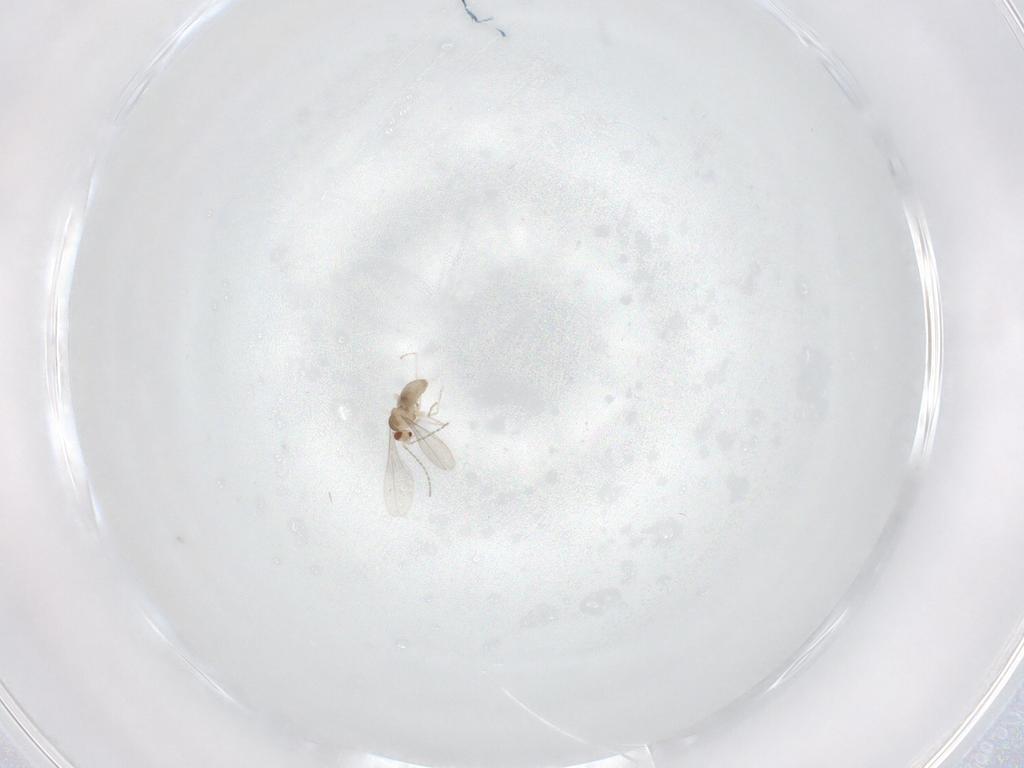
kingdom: Animalia
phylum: Arthropoda
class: Insecta
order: Diptera
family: Cecidomyiidae
